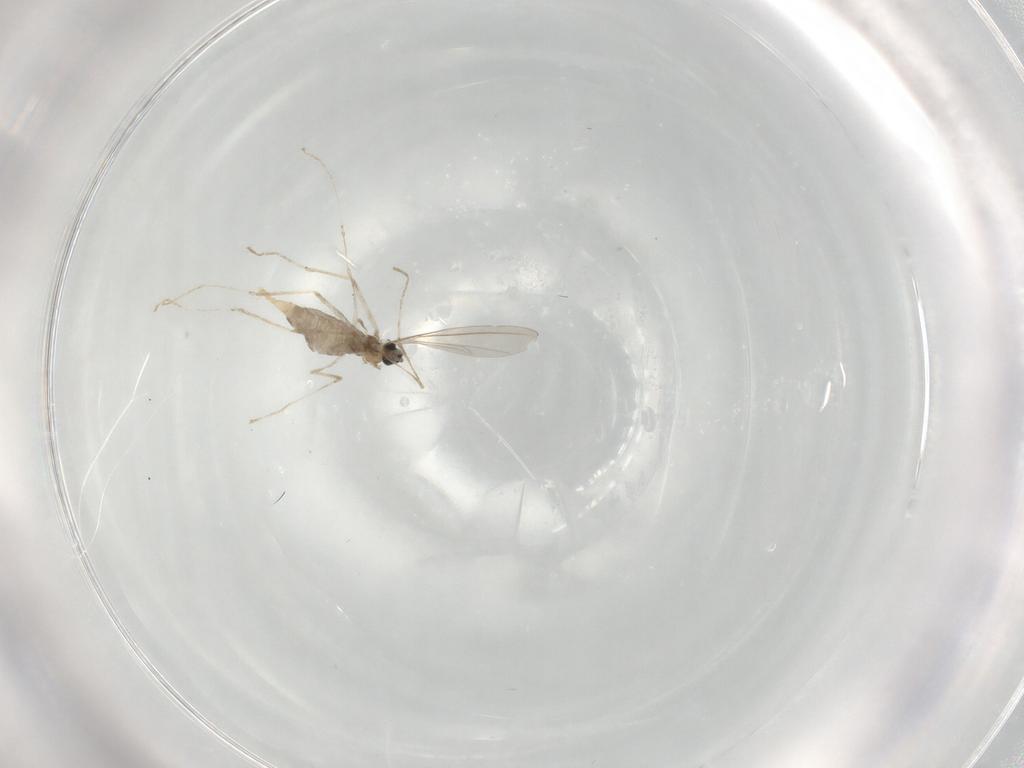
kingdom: Animalia
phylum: Arthropoda
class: Insecta
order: Diptera
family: Cecidomyiidae
